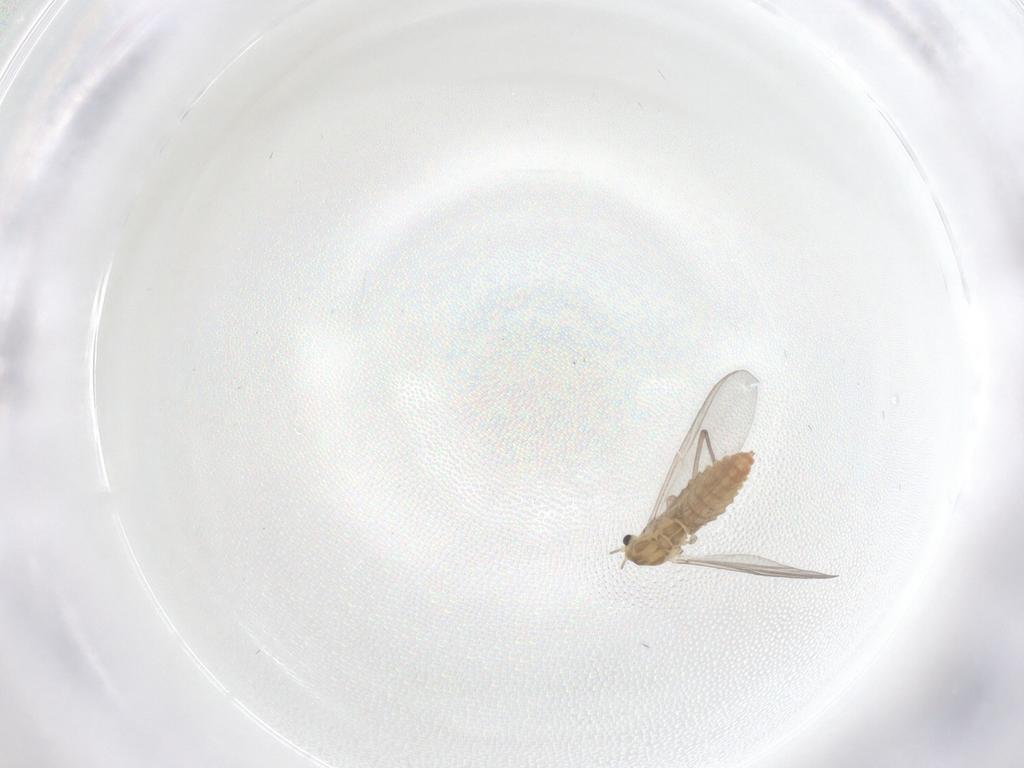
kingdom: Animalia
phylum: Arthropoda
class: Insecta
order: Diptera
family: Chironomidae
